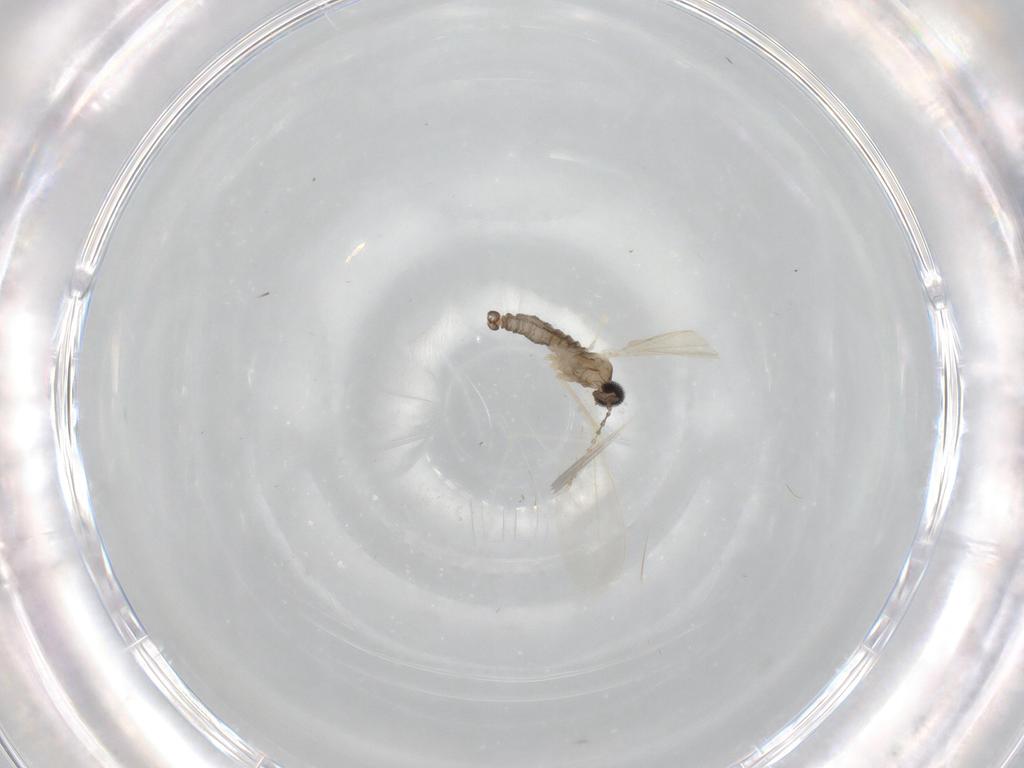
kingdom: Animalia
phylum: Arthropoda
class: Insecta
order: Diptera
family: Cecidomyiidae
